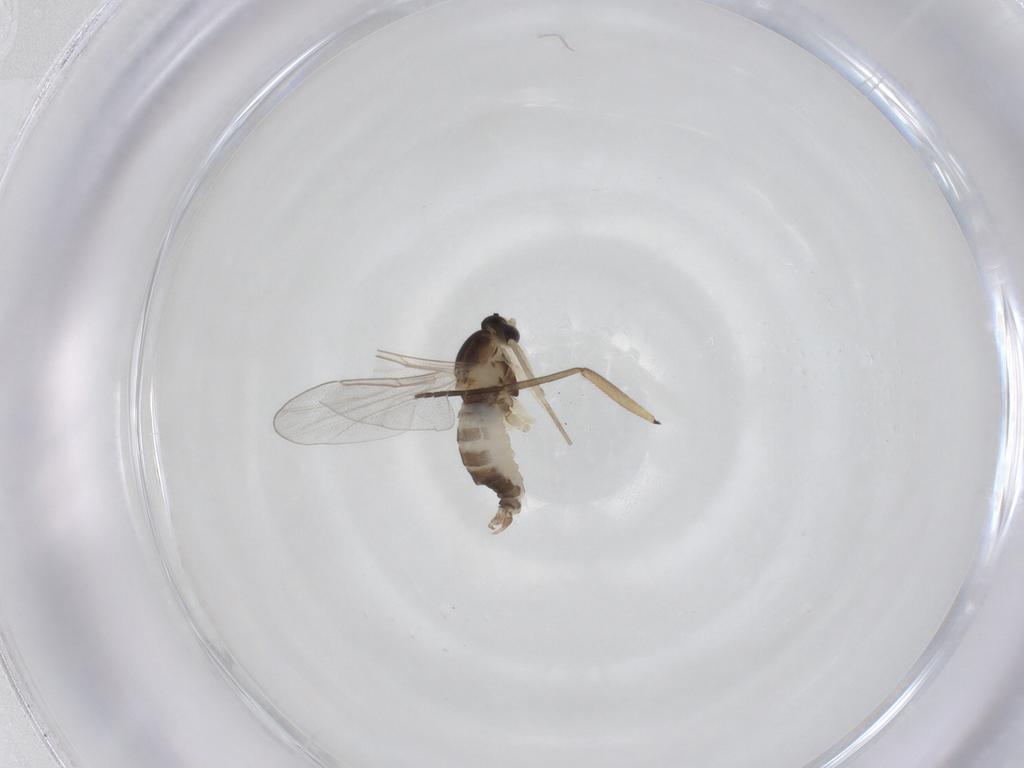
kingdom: Animalia
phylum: Arthropoda
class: Insecta
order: Diptera
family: Cecidomyiidae
